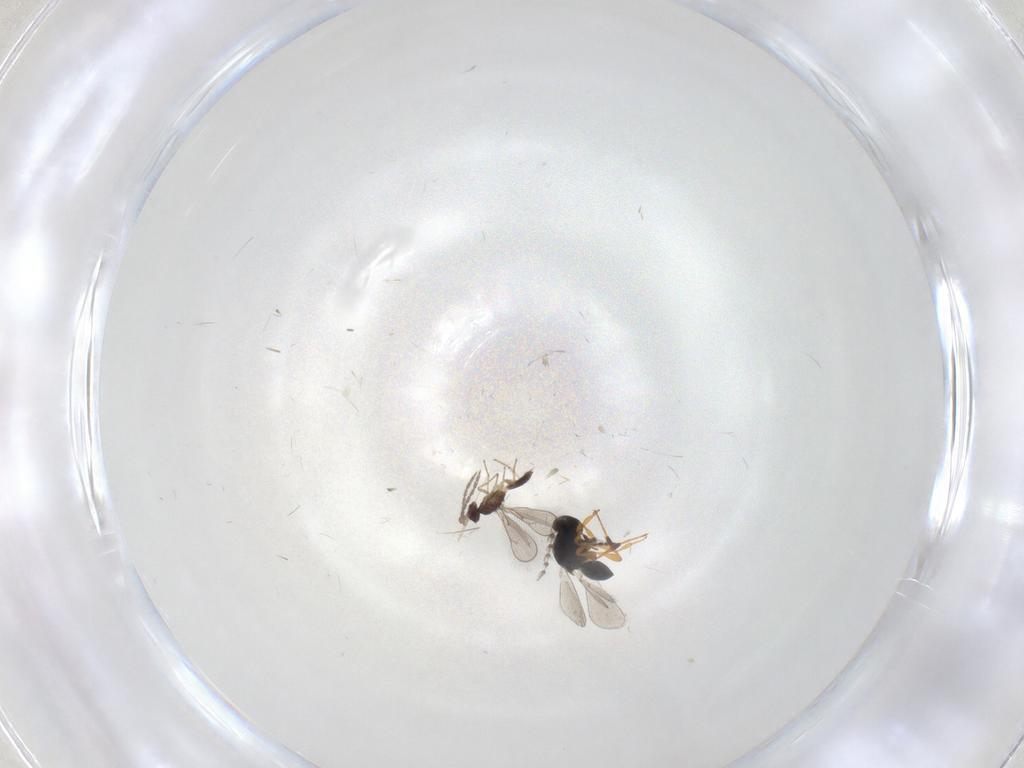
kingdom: Animalia
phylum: Arthropoda
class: Insecta
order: Hymenoptera
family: Platygastridae
